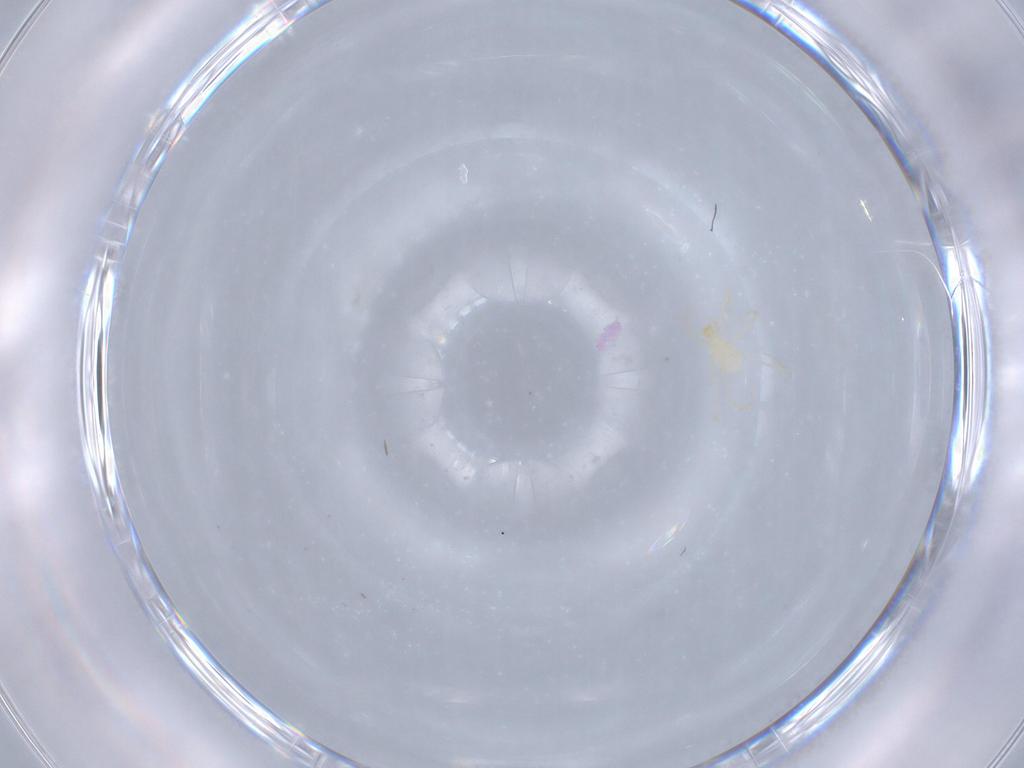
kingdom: Animalia
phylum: Arthropoda
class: Arachnida
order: Trombidiformes
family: Erythraeidae
